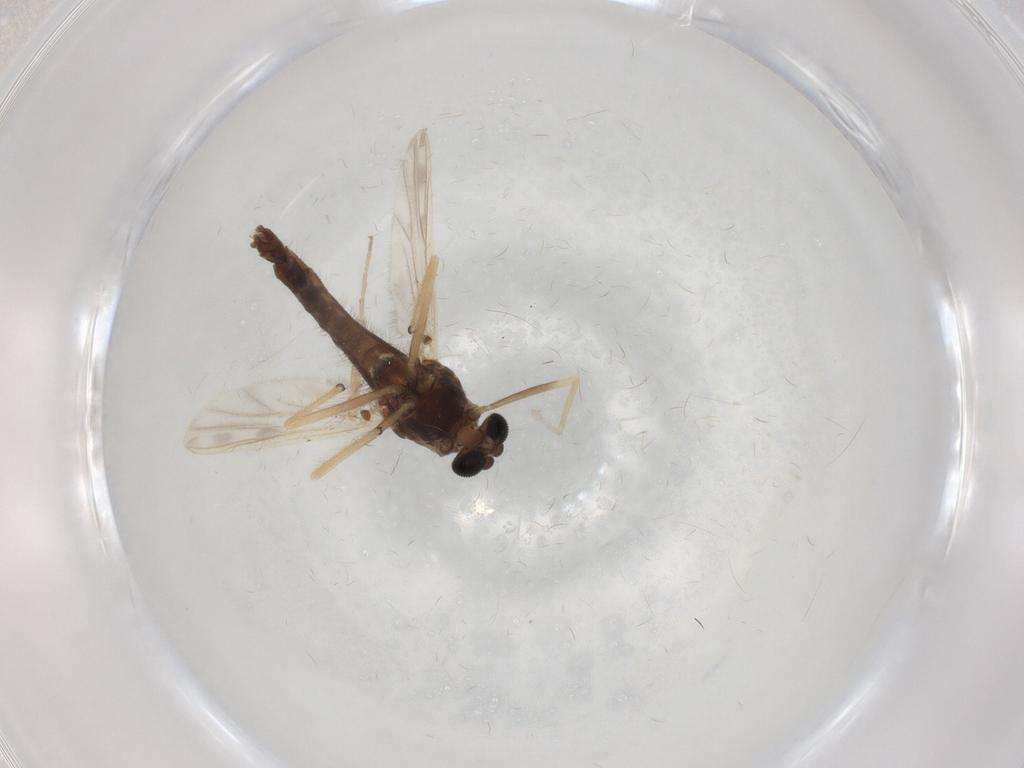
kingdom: Animalia
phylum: Arthropoda
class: Insecta
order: Diptera
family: Chironomidae
